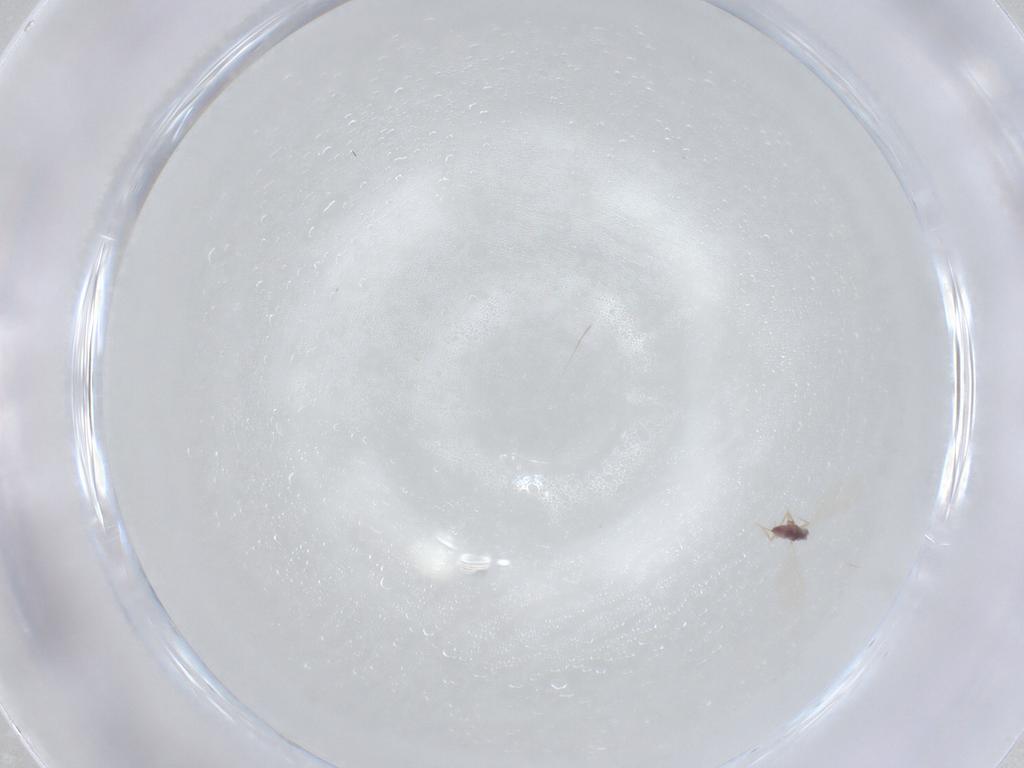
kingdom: Animalia
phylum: Arthropoda
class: Insecta
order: Hymenoptera
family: Ichneumonidae
